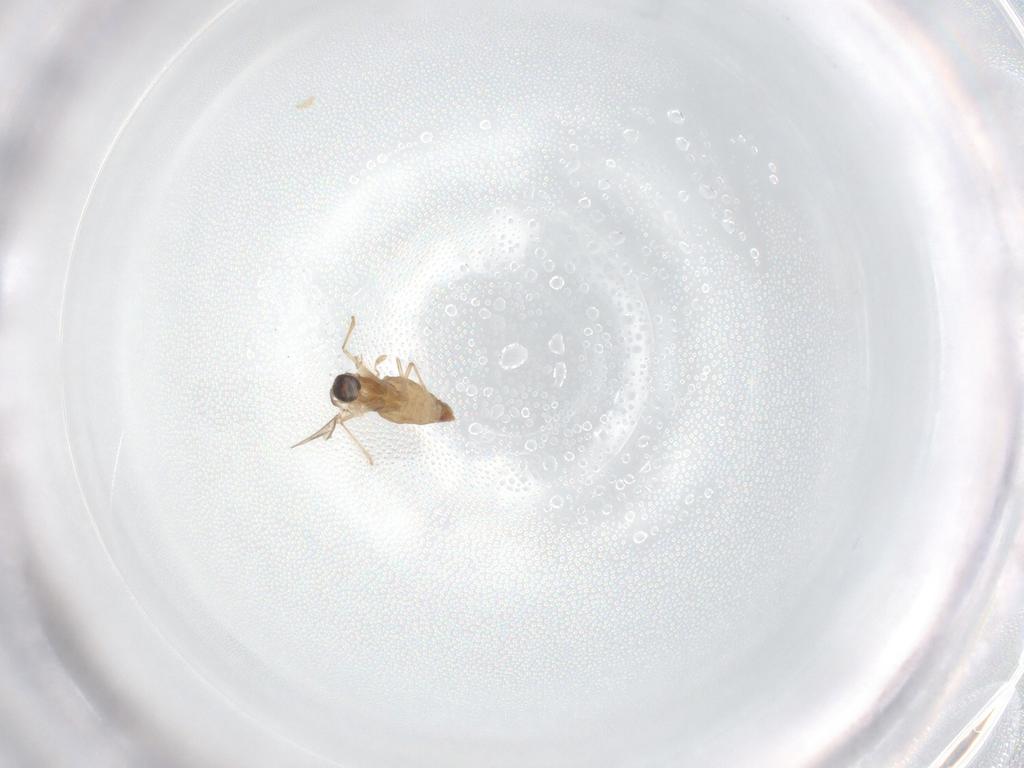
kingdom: Animalia
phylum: Arthropoda
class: Insecta
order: Diptera
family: Cecidomyiidae
